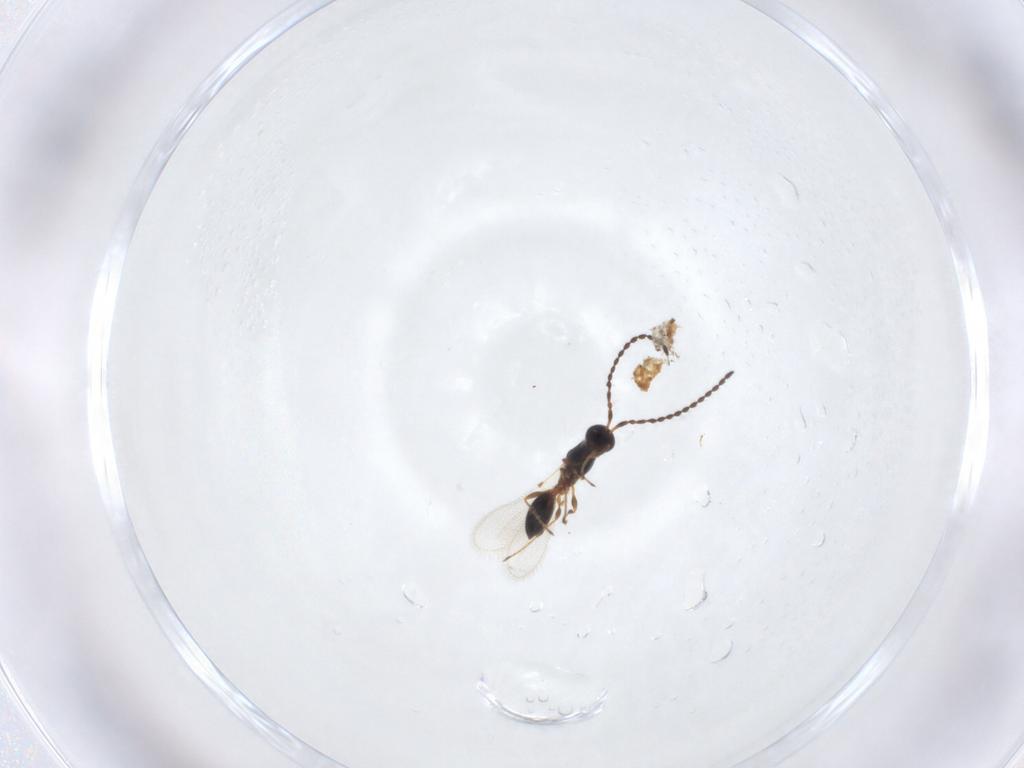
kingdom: Animalia
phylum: Arthropoda
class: Insecta
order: Hymenoptera
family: Diapriidae
